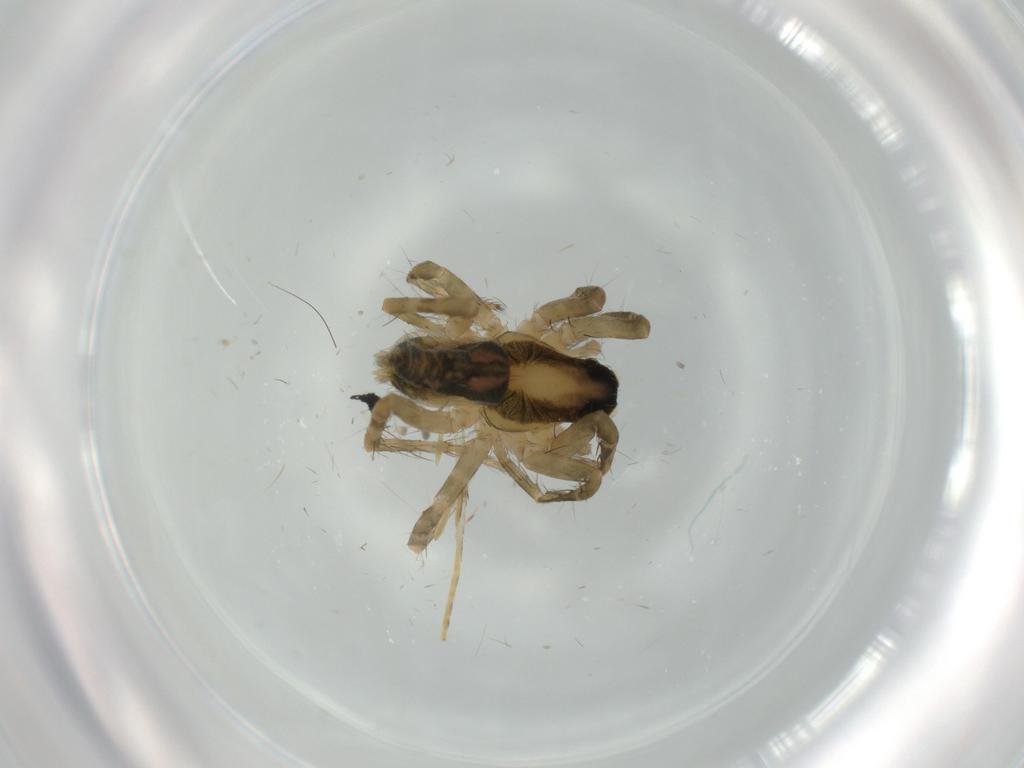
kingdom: Animalia
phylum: Arthropoda
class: Arachnida
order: Araneae
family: Lycosidae
